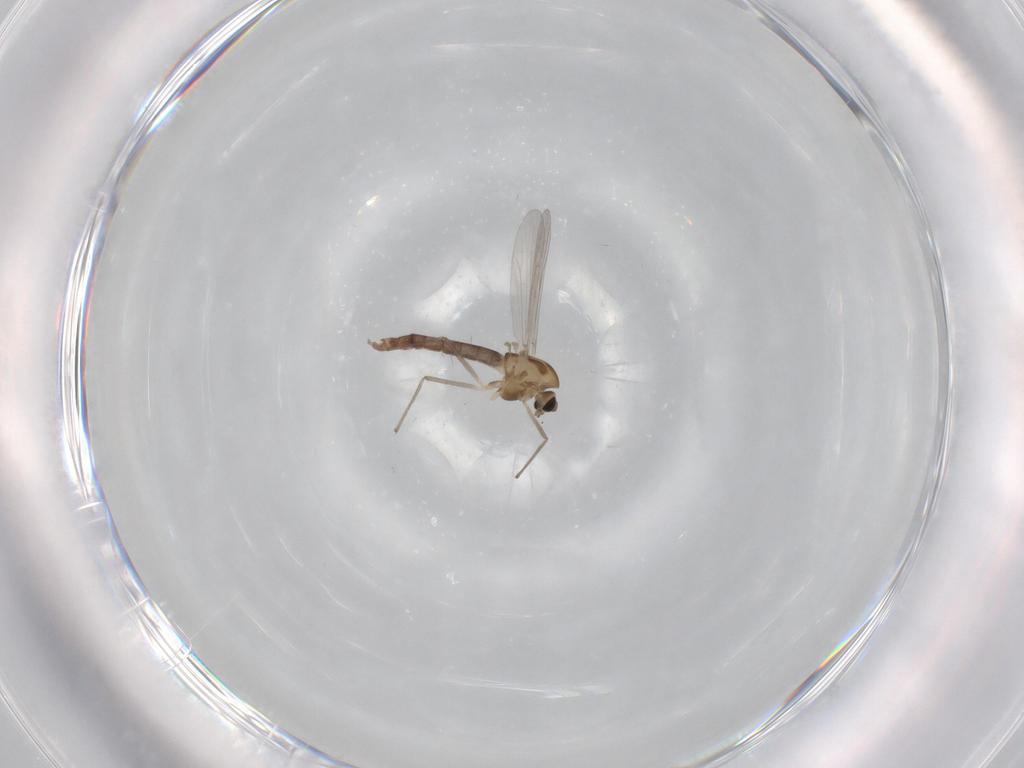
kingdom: Animalia
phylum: Arthropoda
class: Insecta
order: Diptera
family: Chironomidae
